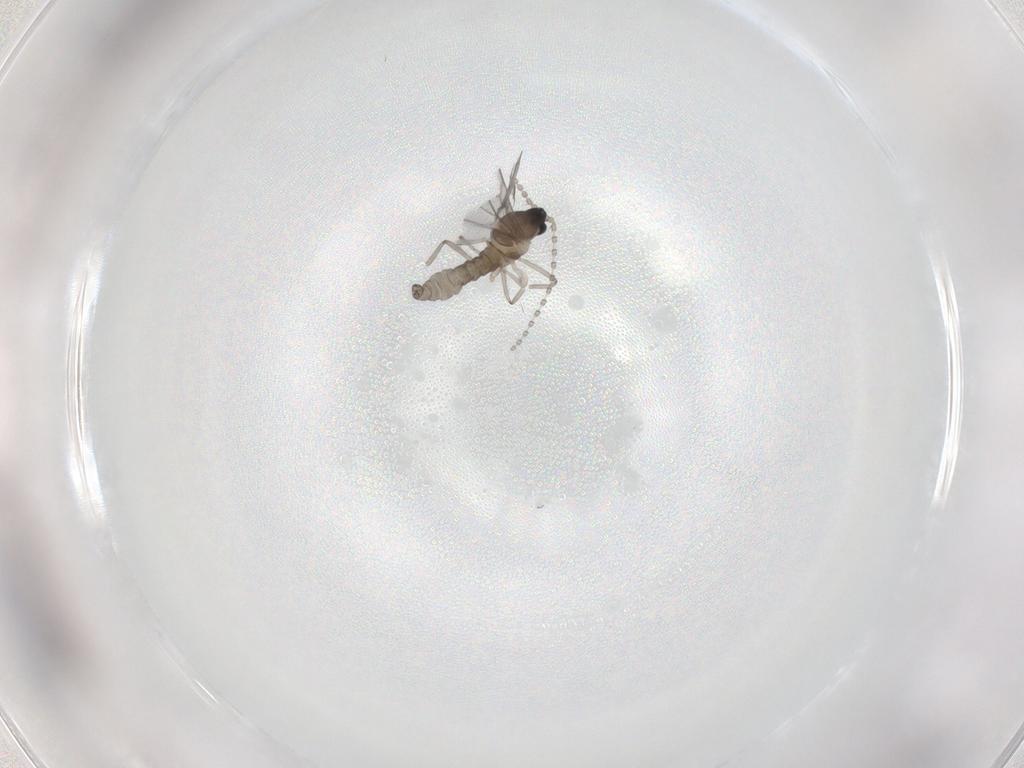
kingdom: Animalia
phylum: Arthropoda
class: Insecta
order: Diptera
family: Cecidomyiidae
